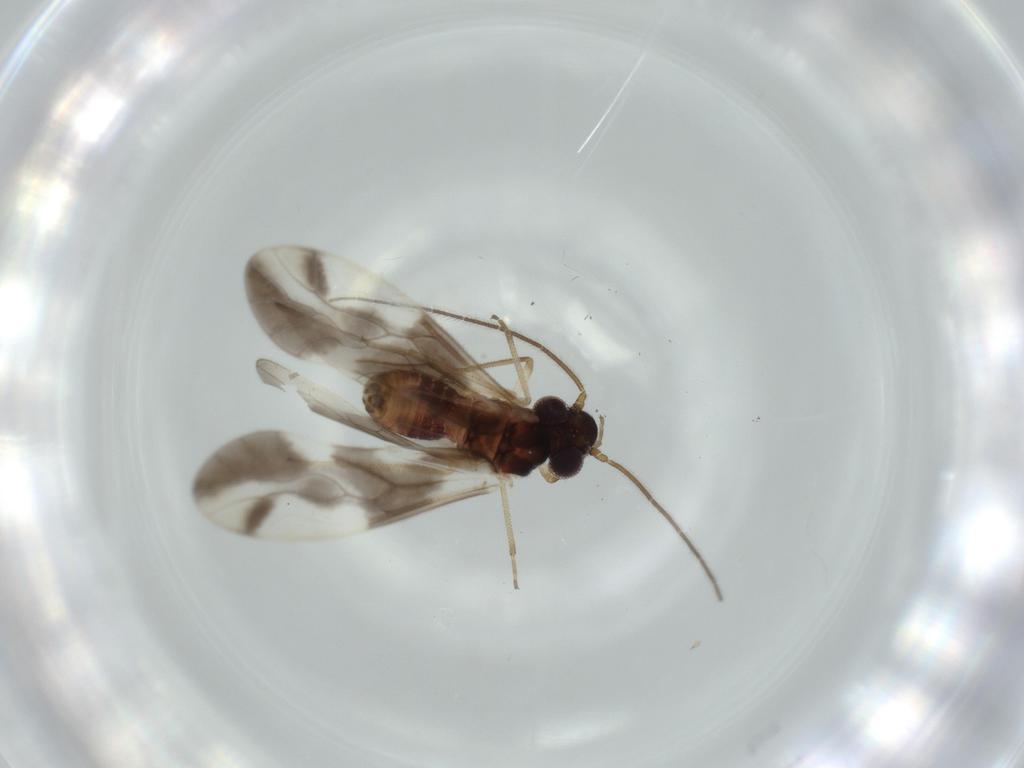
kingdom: Animalia
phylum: Arthropoda
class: Insecta
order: Psocodea
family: Caeciliusidae
